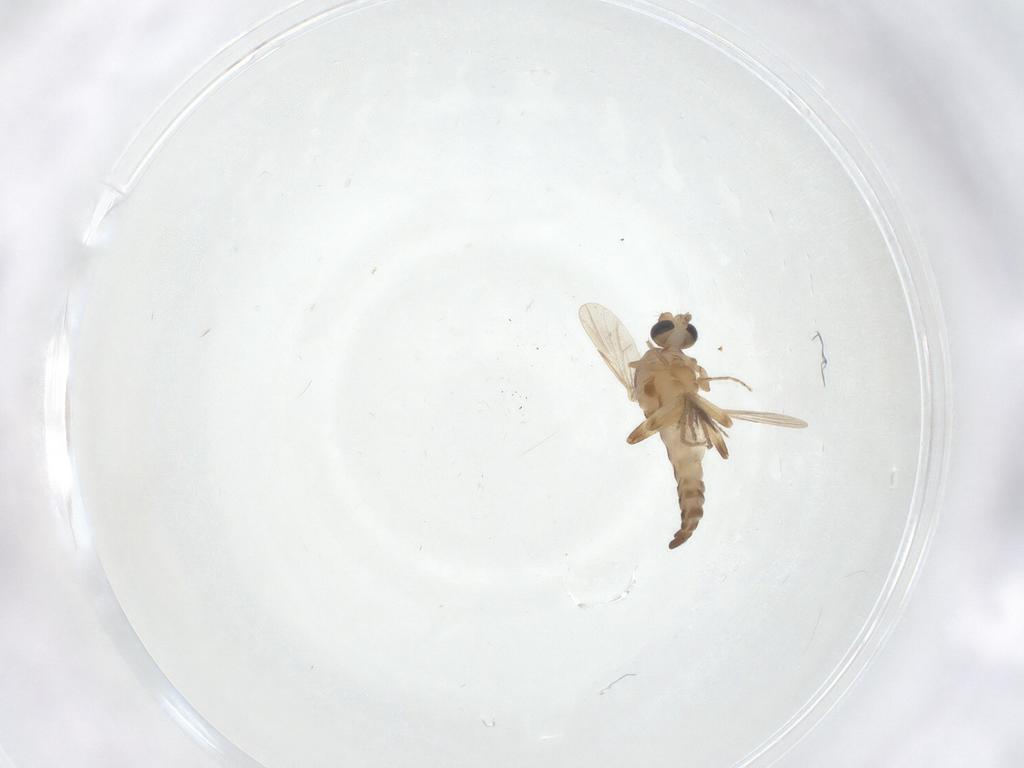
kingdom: Animalia
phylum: Arthropoda
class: Insecta
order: Diptera
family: Ceratopogonidae
